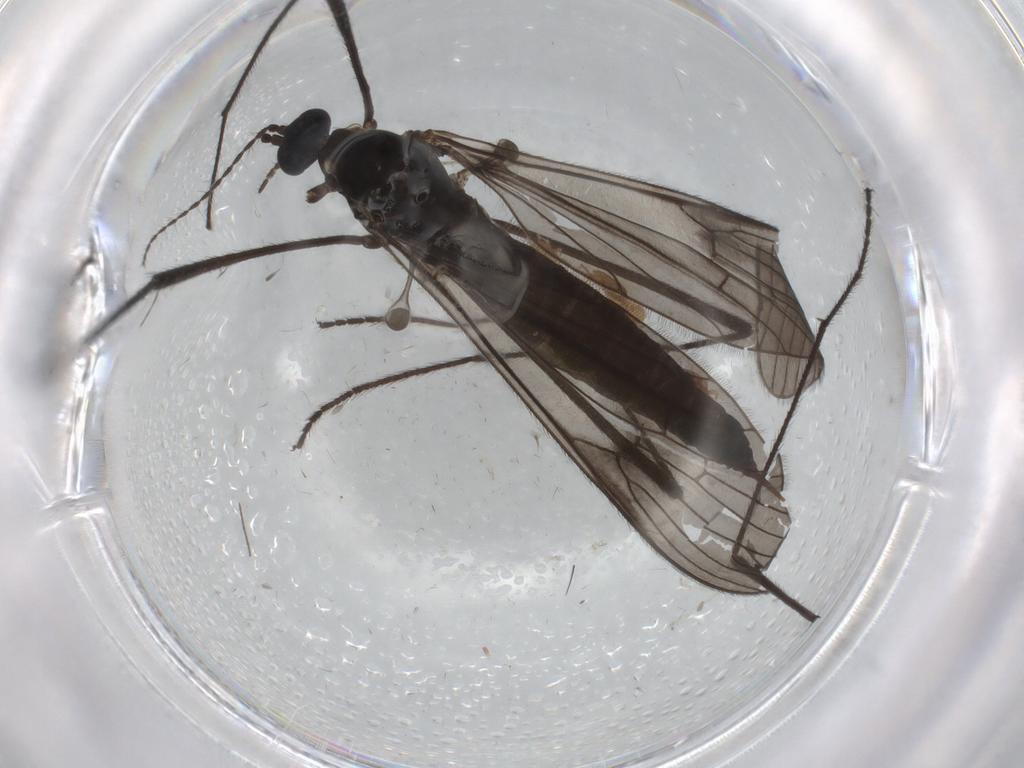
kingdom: Animalia
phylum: Arthropoda
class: Insecta
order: Diptera
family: Limoniidae
